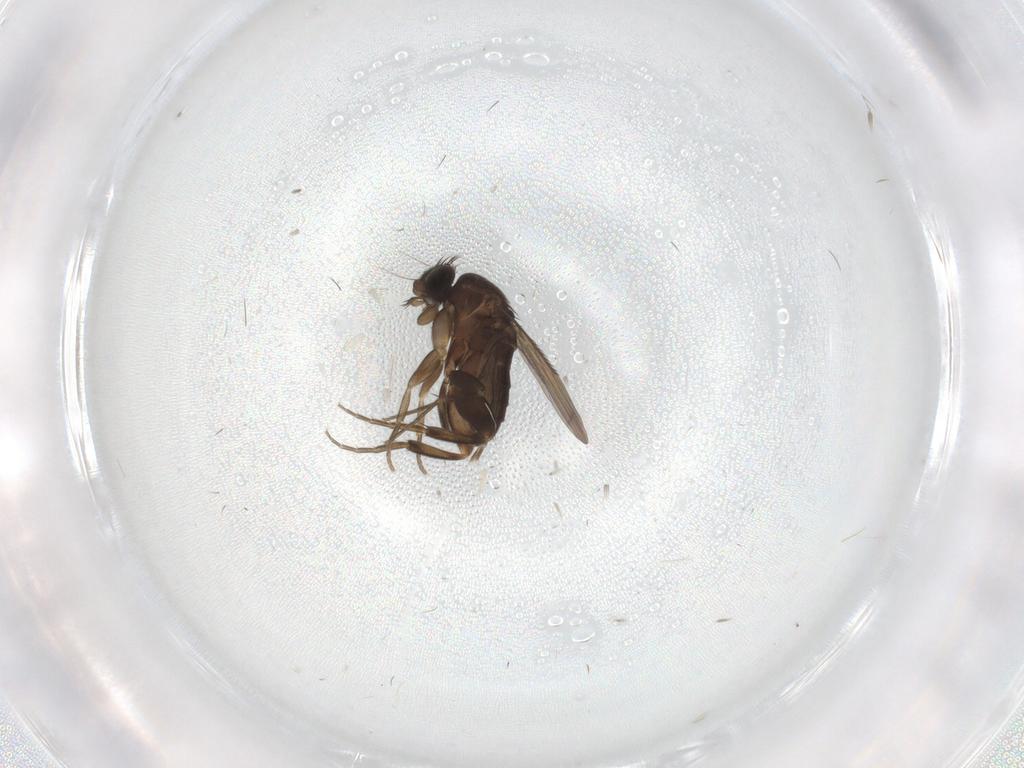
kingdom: Animalia
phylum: Arthropoda
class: Insecta
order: Diptera
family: Phoridae
